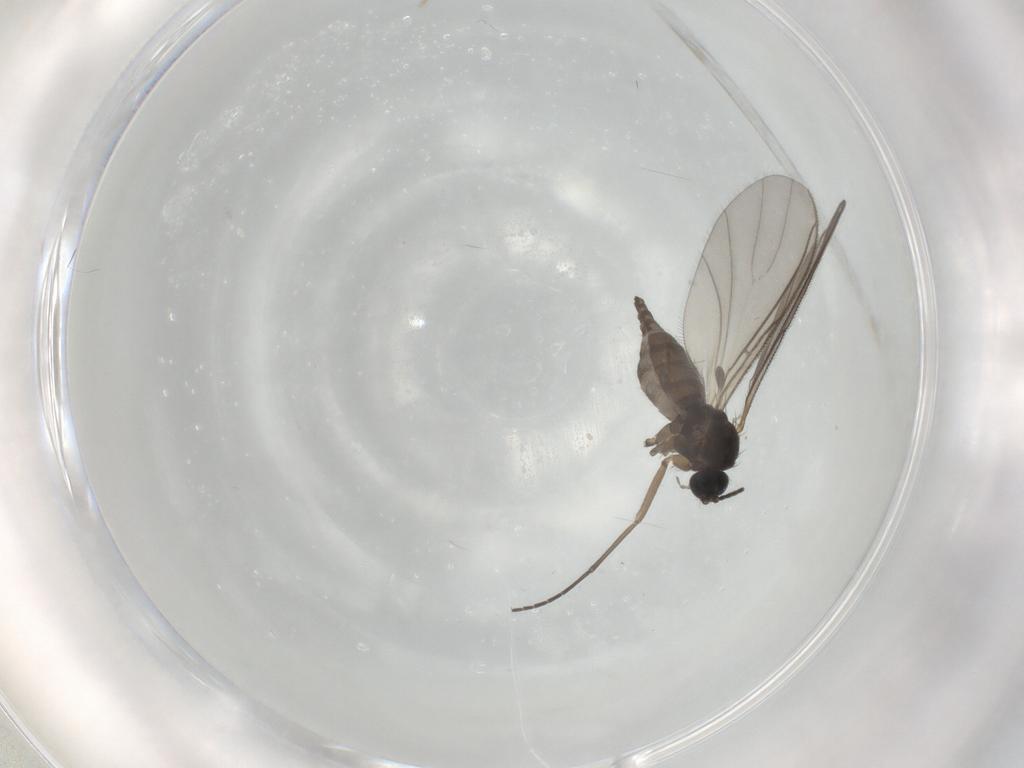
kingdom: Animalia
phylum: Arthropoda
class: Insecta
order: Diptera
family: Sciaridae
